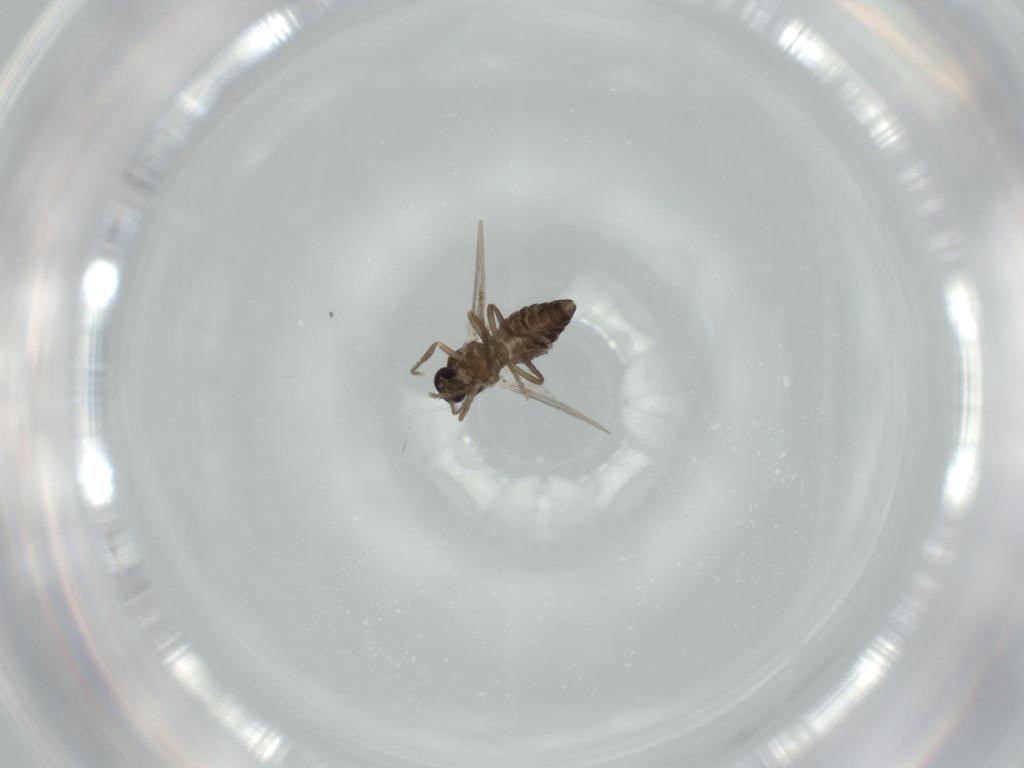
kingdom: Animalia
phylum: Arthropoda
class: Insecta
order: Diptera
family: Ceratopogonidae
